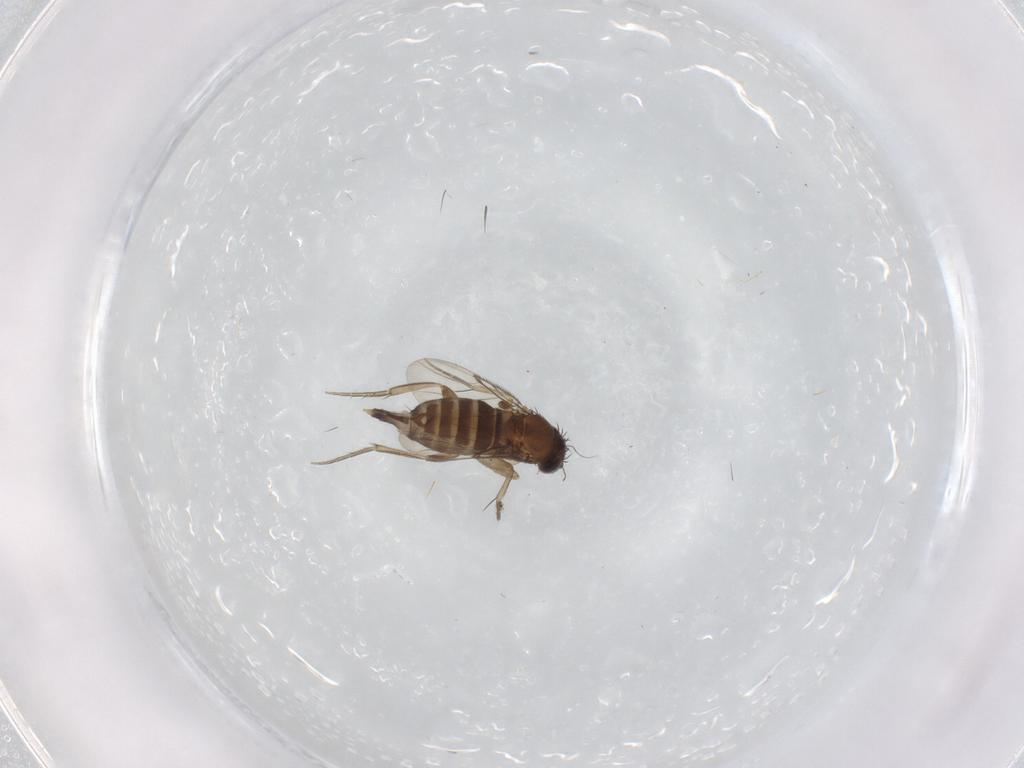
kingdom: Animalia
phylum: Arthropoda
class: Insecta
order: Diptera
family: Phoridae
